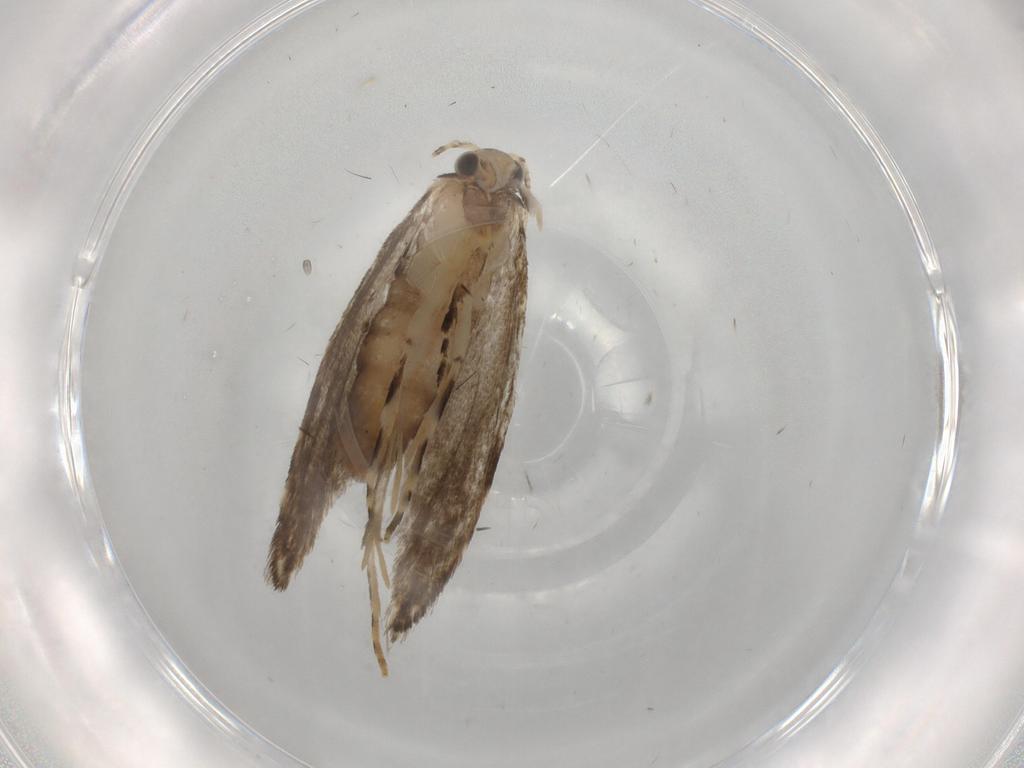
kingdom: Animalia
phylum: Arthropoda
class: Insecta
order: Lepidoptera
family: Tineidae
